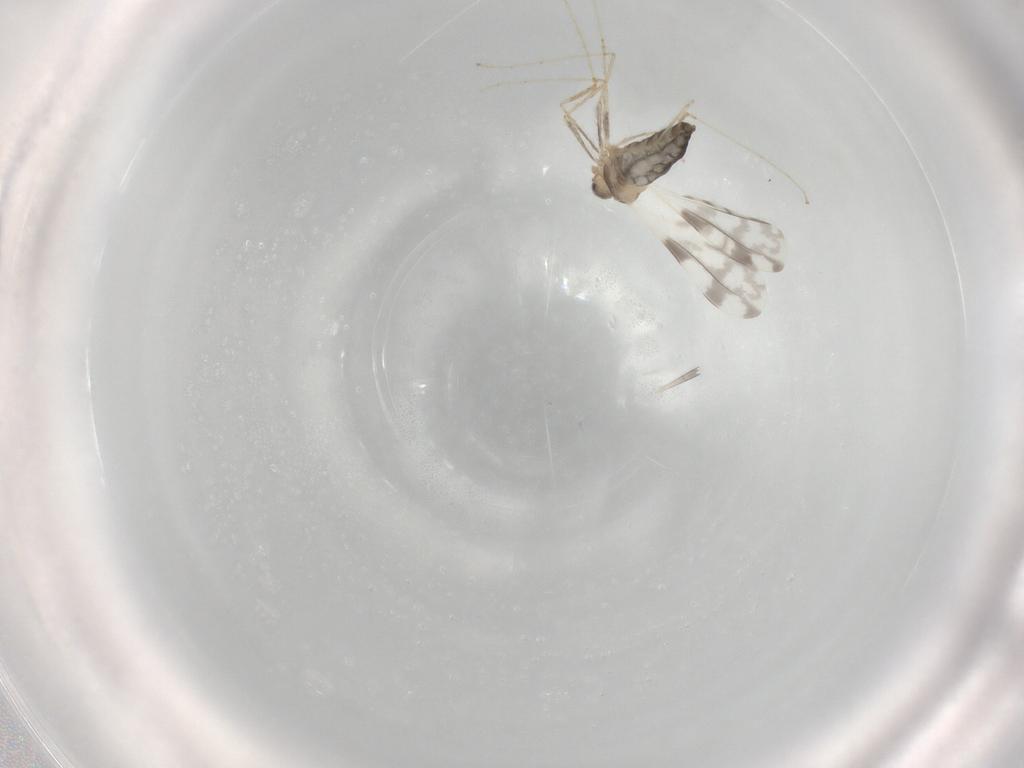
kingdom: Animalia
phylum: Arthropoda
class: Insecta
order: Diptera
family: Cecidomyiidae
